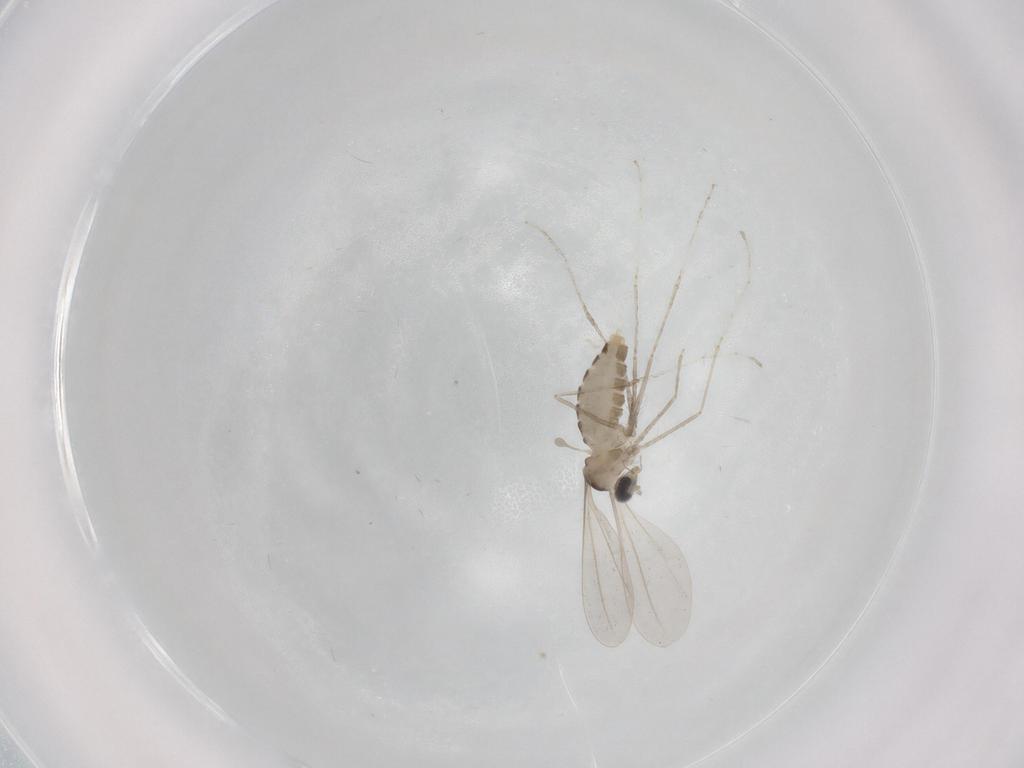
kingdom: Animalia
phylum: Arthropoda
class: Insecta
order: Diptera
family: Cecidomyiidae
